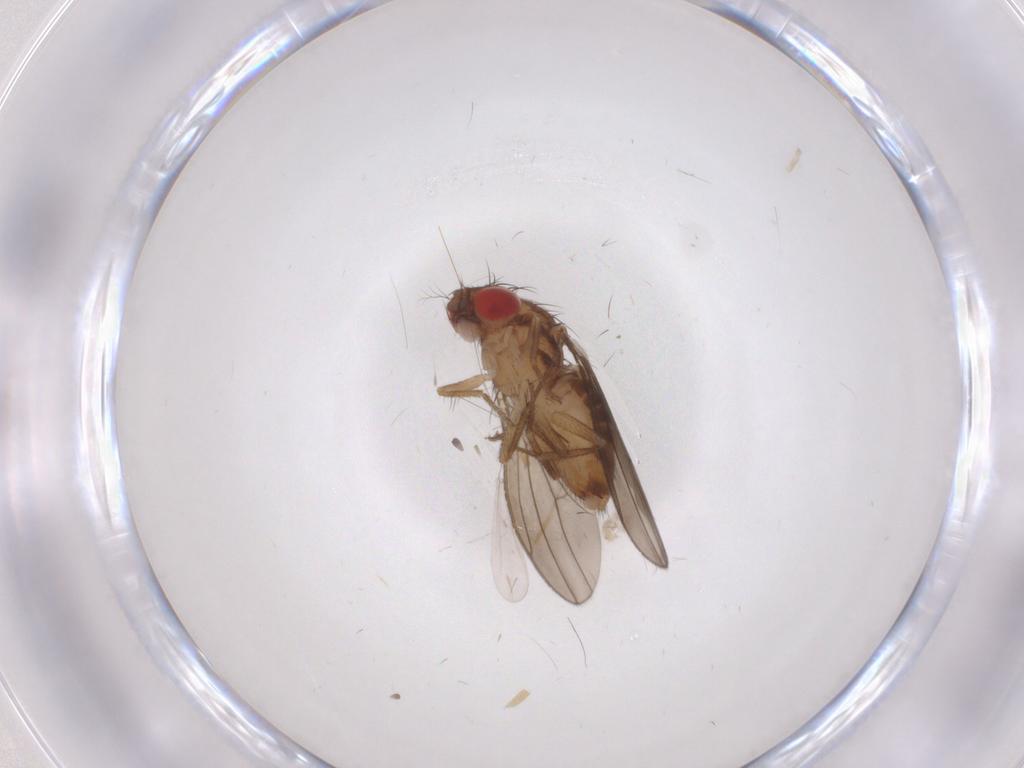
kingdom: Animalia
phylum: Arthropoda
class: Insecta
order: Diptera
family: Drosophilidae
